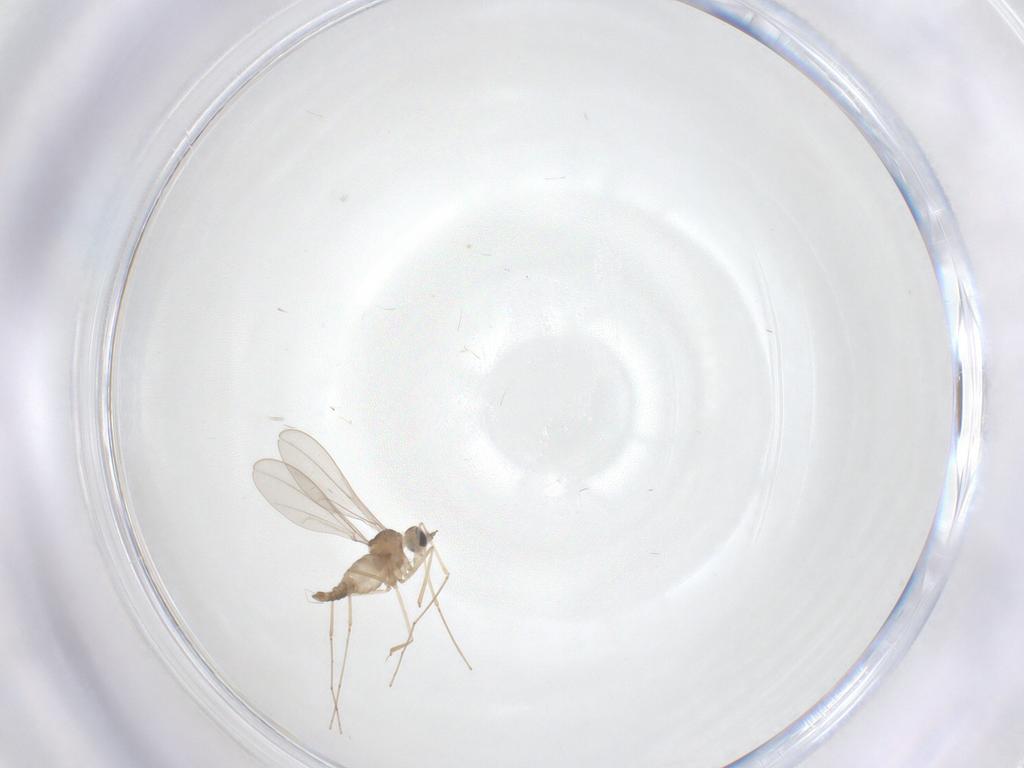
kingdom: Animalia
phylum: Arthropoda
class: Insecta
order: Diptera
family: Cecidomyiidae
